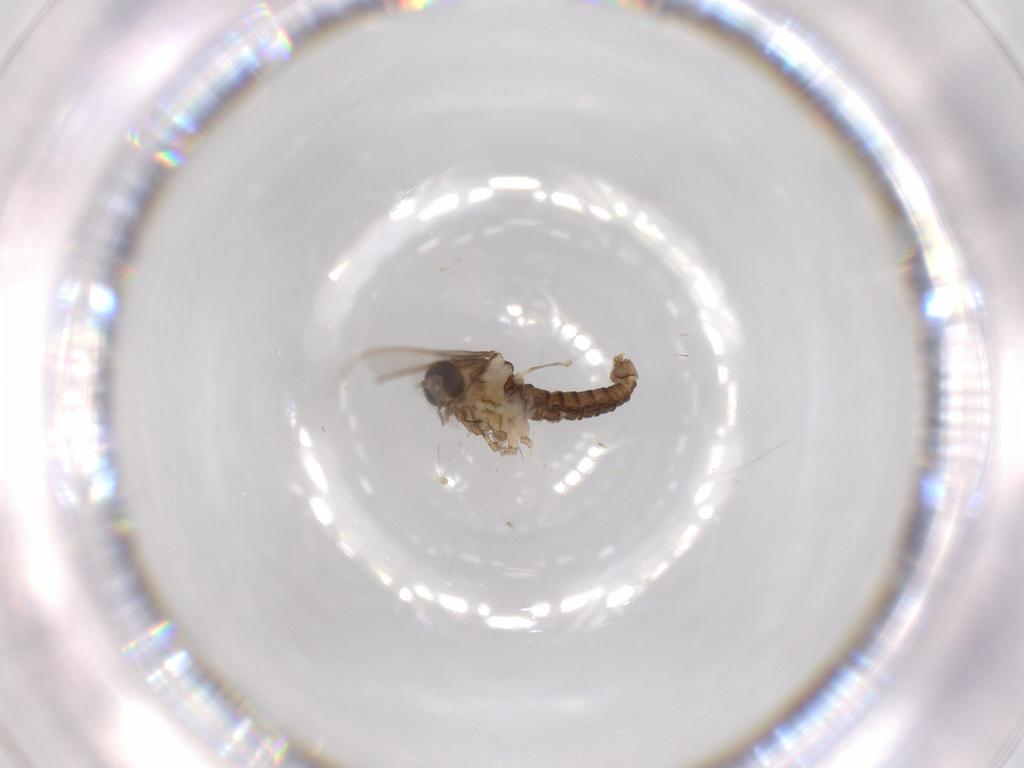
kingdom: Animalia
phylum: Arthropoda
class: Insecta
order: Diptera
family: Cecidomyiidae
